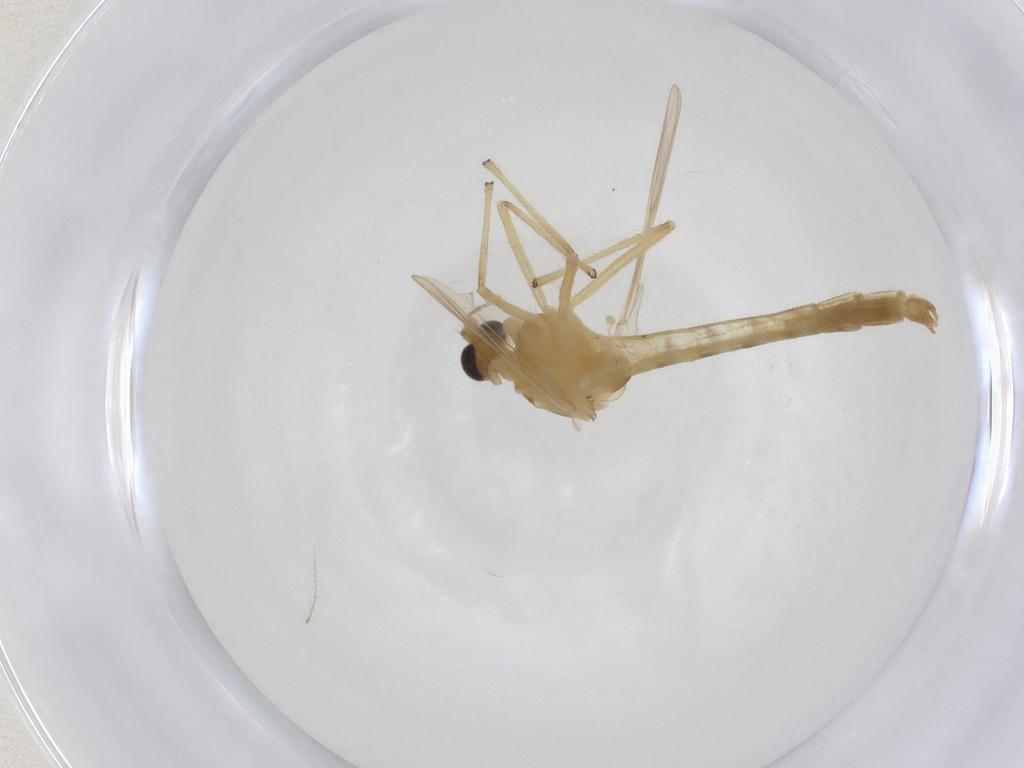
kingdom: Animalia
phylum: Arthropoda
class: Insecta
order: Diptera
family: Chironomidae
